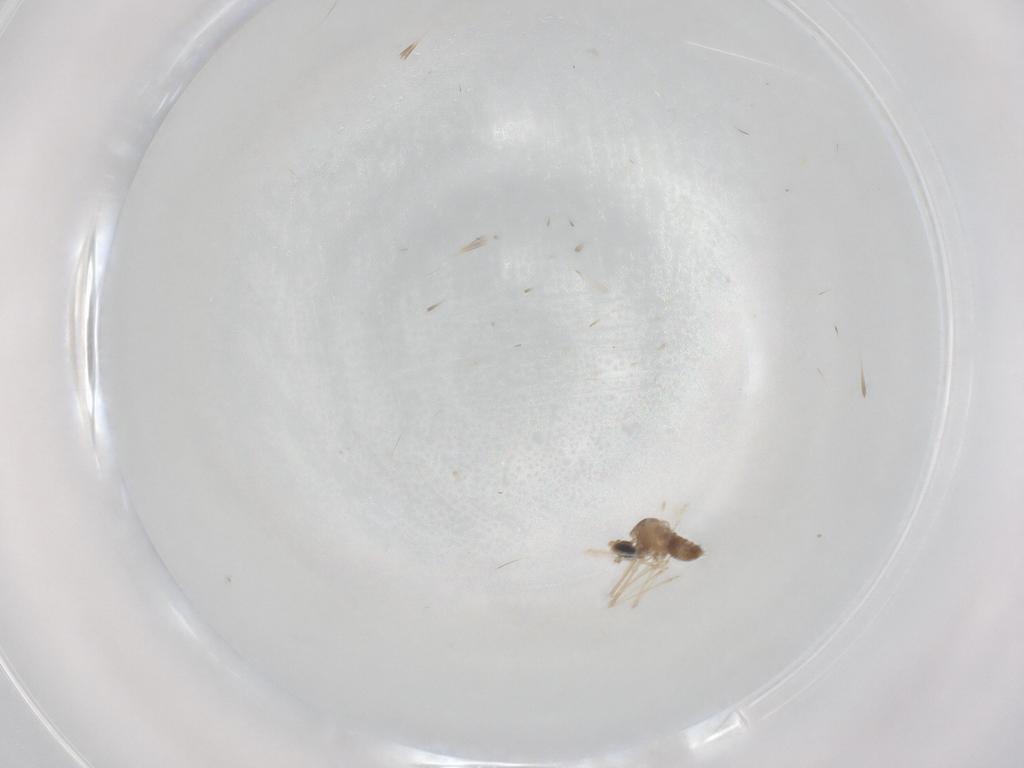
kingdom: Animalia
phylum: Arthropoda
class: Insecta
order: Diptera
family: Cecidomyiidae
